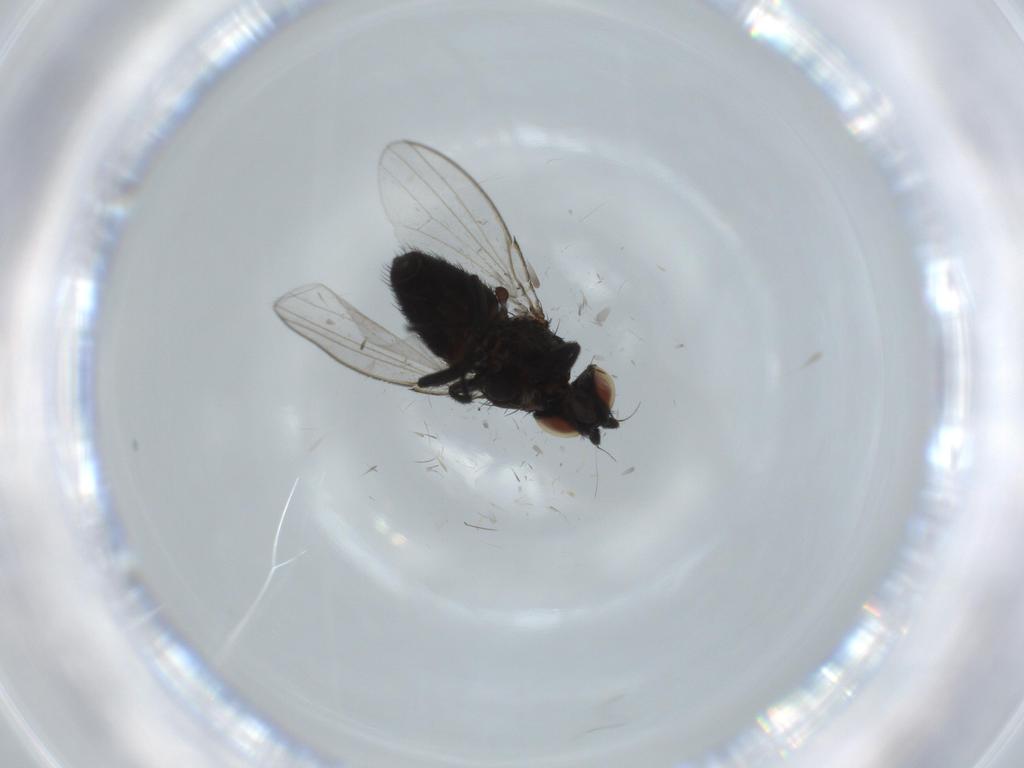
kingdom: Animalia
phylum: Arthropoda
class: Insecta
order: Diptera
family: Milichiidae
